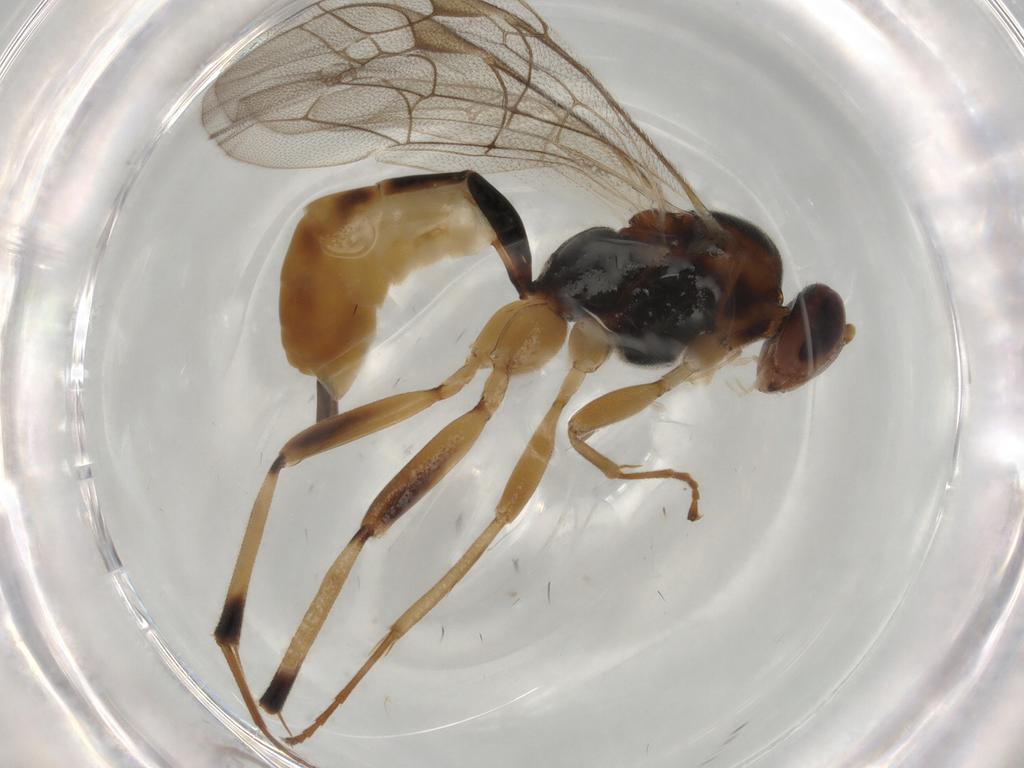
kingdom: Animalia
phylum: Arthropoda
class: Insecta
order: Hymenoptera
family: Ichneumonidae
